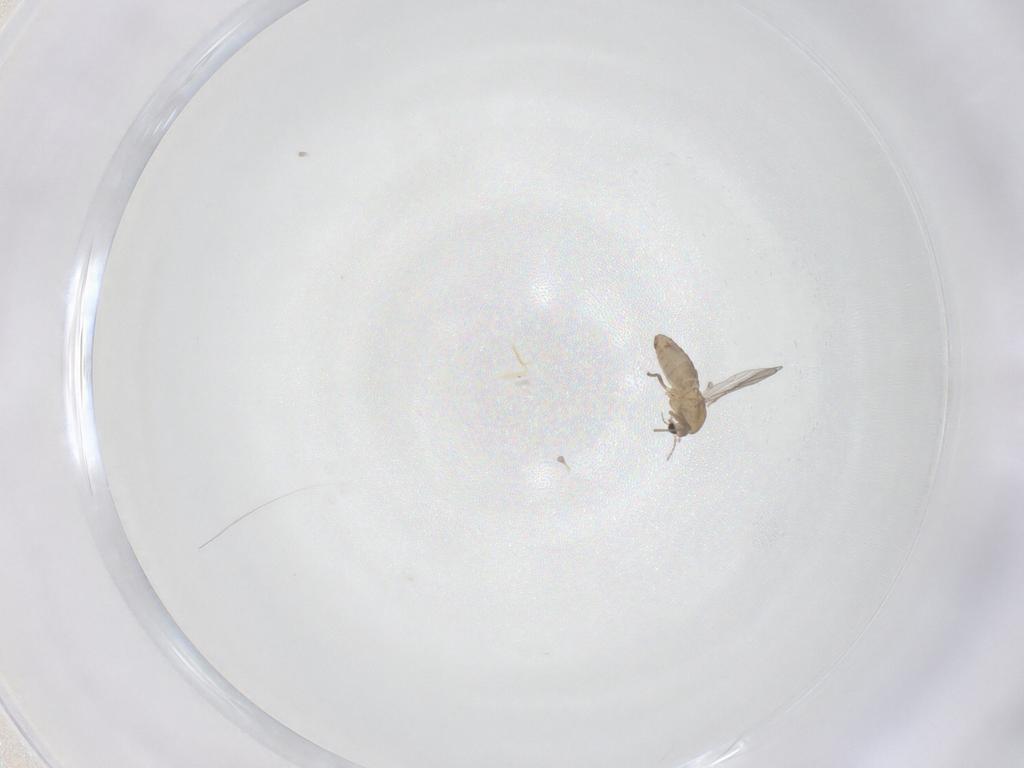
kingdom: Animalia
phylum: Arthropoda
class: Insecta
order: Diptera
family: Chironomidae
